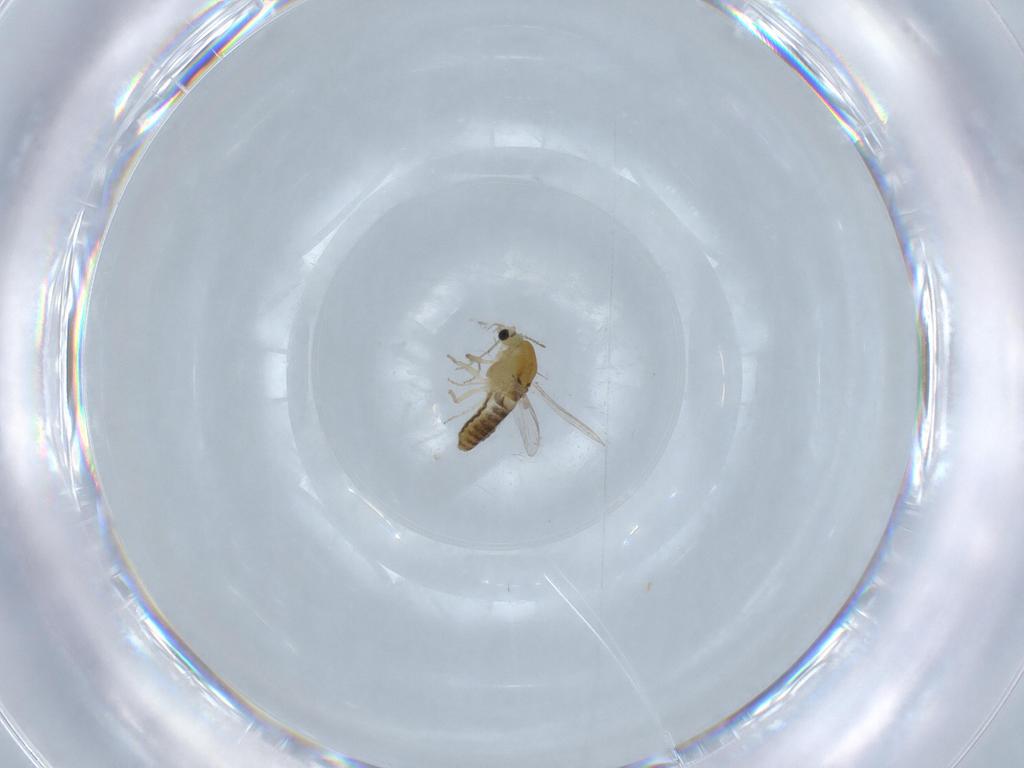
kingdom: Animalia
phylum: Arthropoda
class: Insecta
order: Diptera
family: Chironomidae
